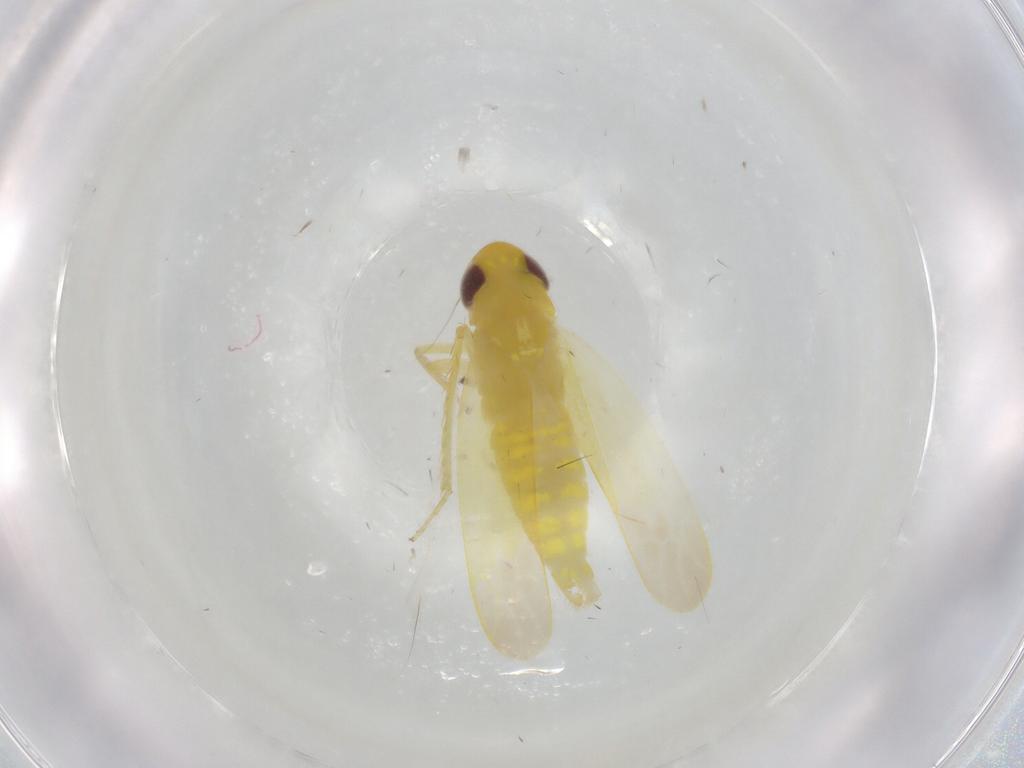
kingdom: Animalia
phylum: Arthropoda
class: Insecta
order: Hemiptera
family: Cicadellidae
